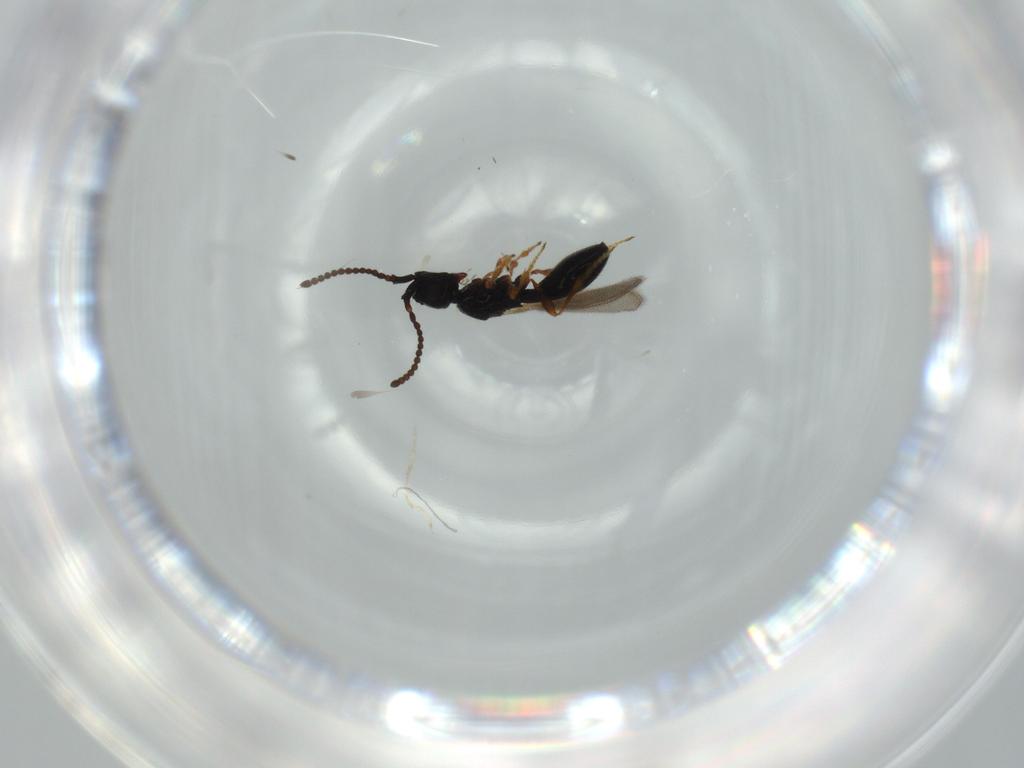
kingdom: Animalia
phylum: Arthropoda
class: Insecta
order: Hymenoptera
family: Diapriidae
